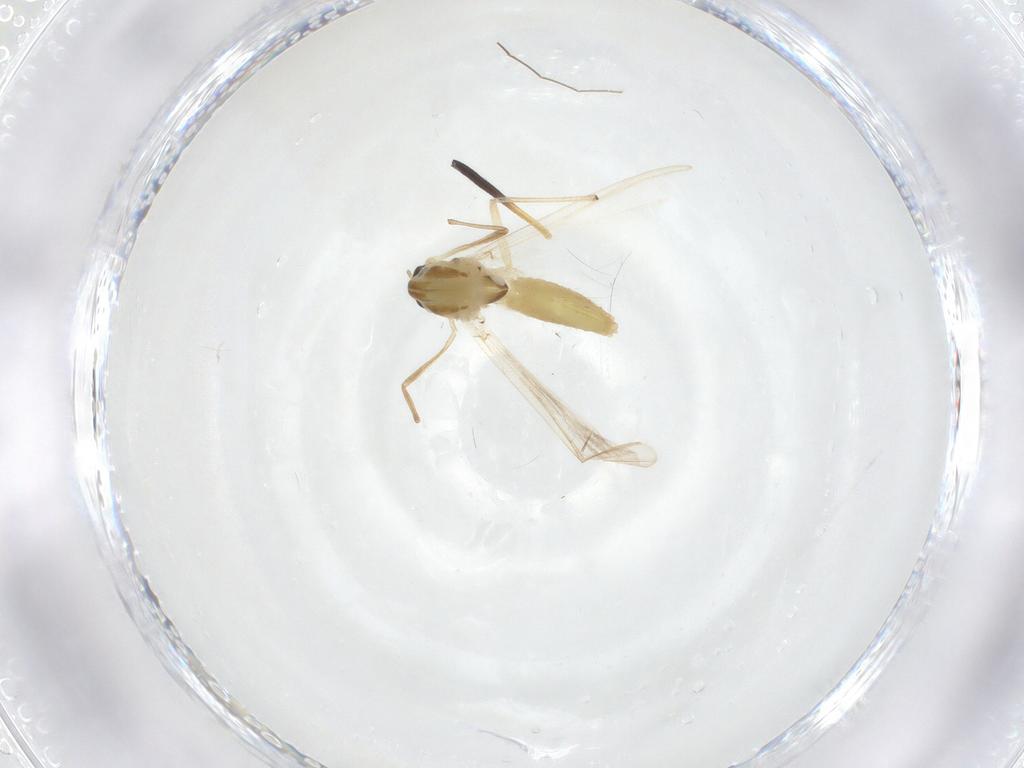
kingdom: Animalia
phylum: Arthropoda
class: Insecta
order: Diptera
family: Chironomidae
